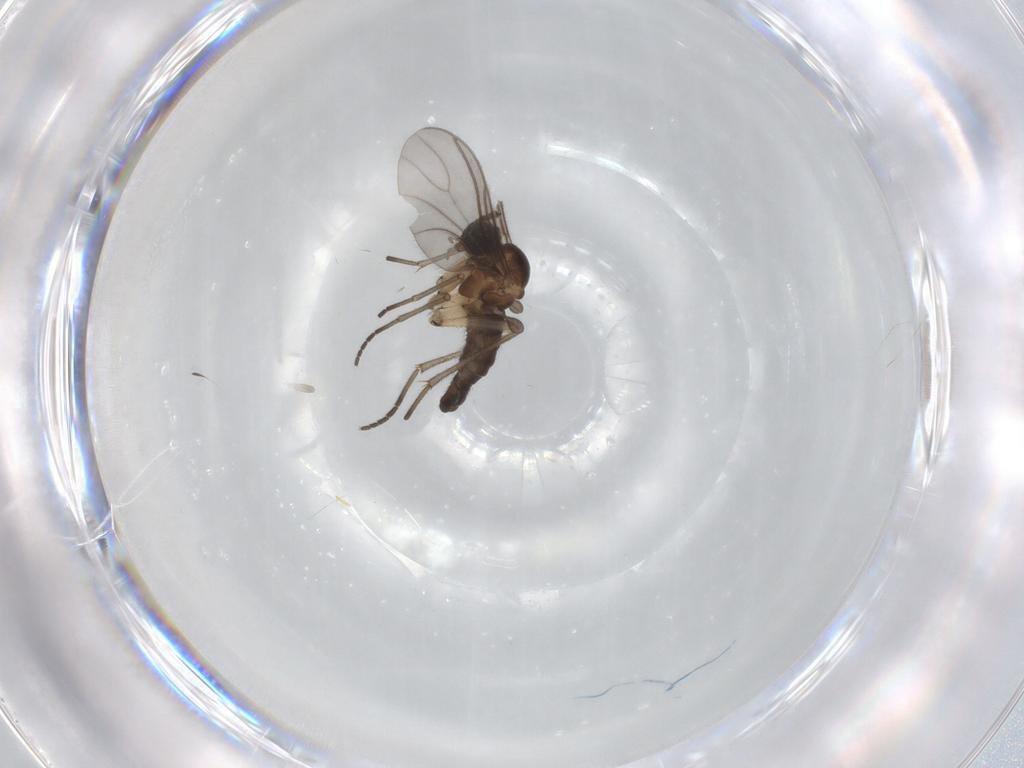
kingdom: Animalia
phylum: Arthropoda
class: Insecta
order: Diptera
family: Sciaridae
